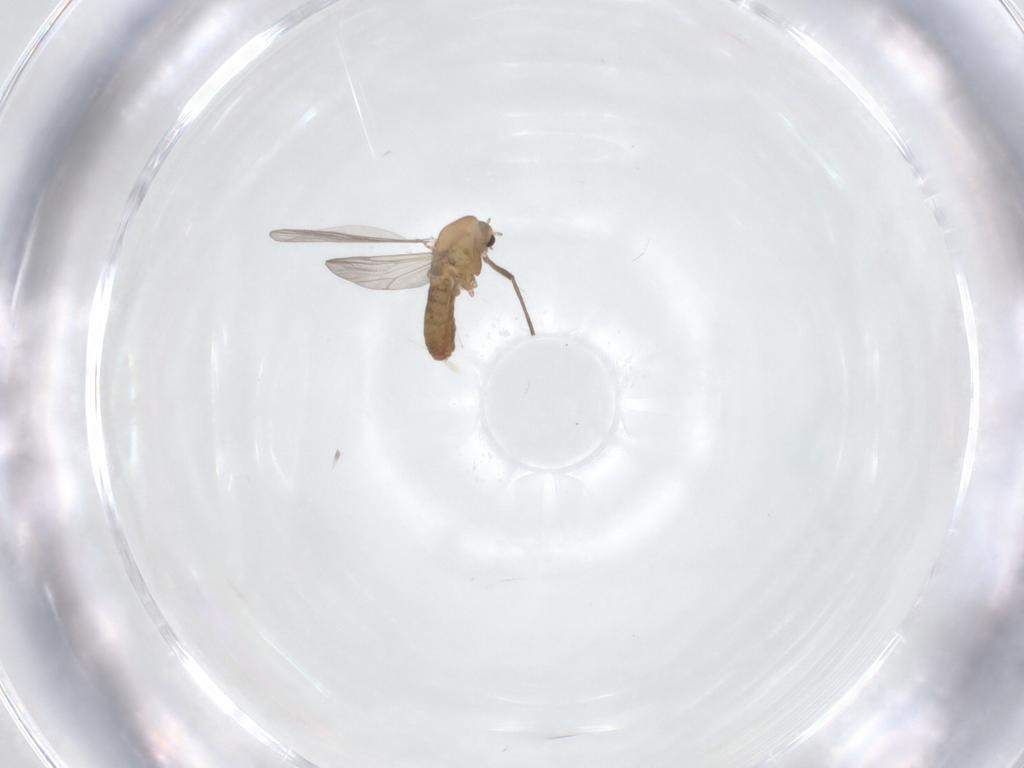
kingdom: Animalia
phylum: Arthropoda
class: Insecta
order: Diptera
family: Chironomidae
